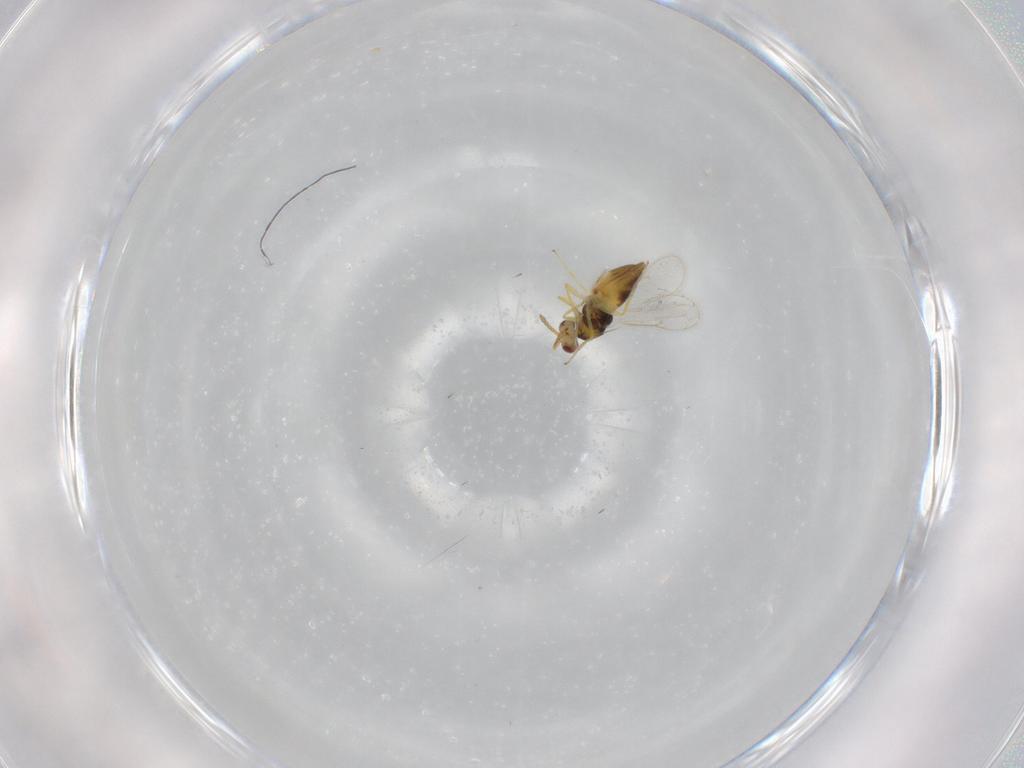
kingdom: Animalia
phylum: Arthropoda
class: Insecta
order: Hymenoptera
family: Eulophidae
